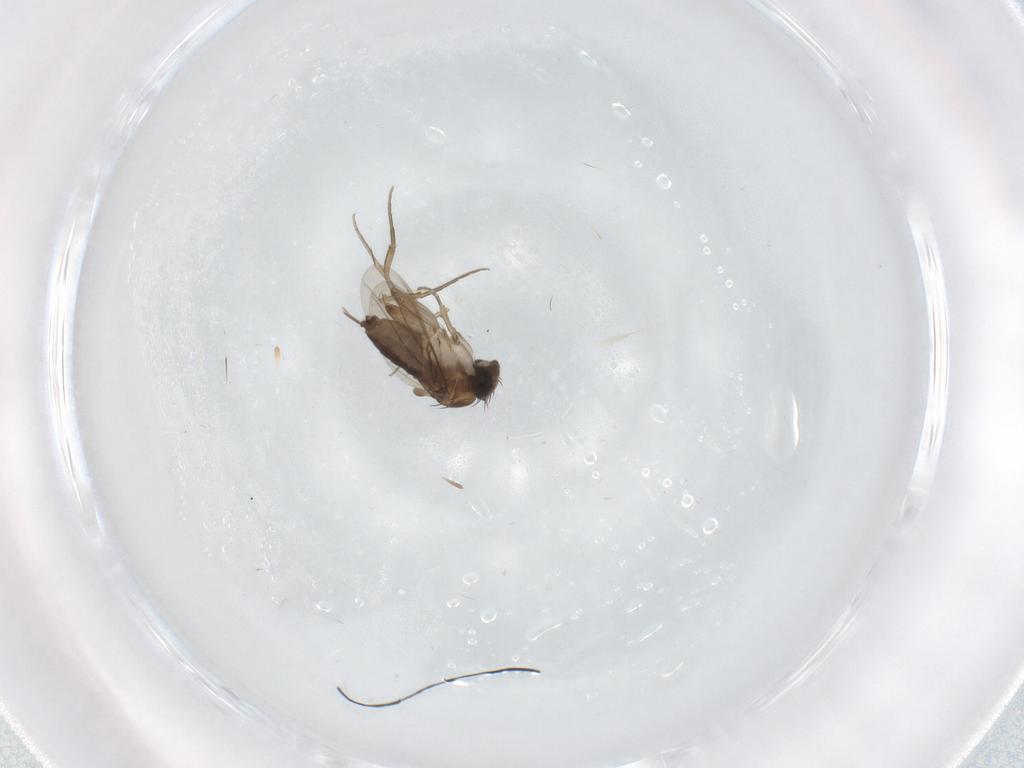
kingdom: Animalia
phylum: Arthropoda
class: Insecta
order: Diptera
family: Phoridae
